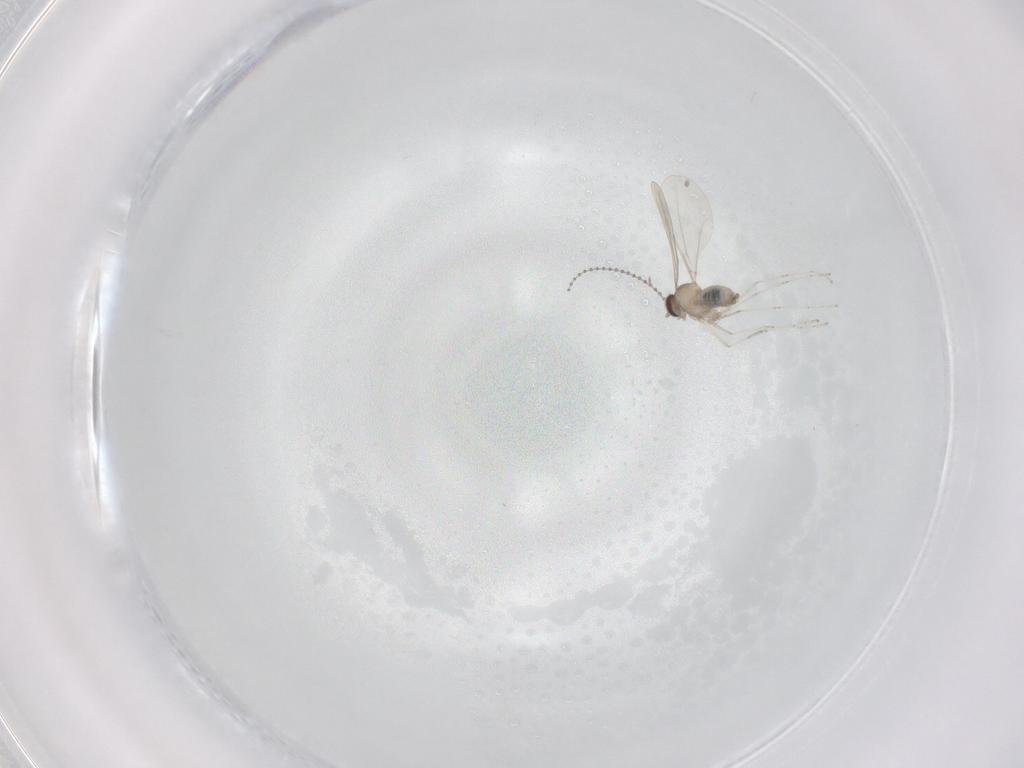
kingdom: Animalia
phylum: Arthropoda
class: Insecta
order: Diptera
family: Cecidomyiidae
